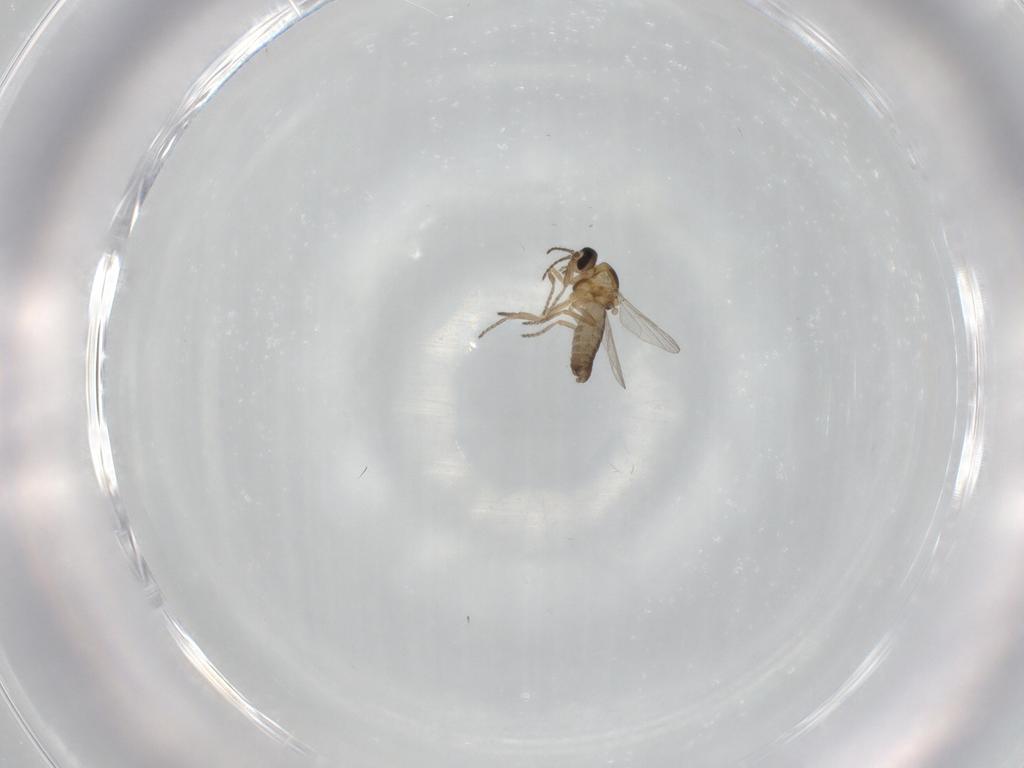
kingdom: Animalia
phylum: Arthropoda
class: Insecta
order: Diptera
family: Ceratopogonidae
